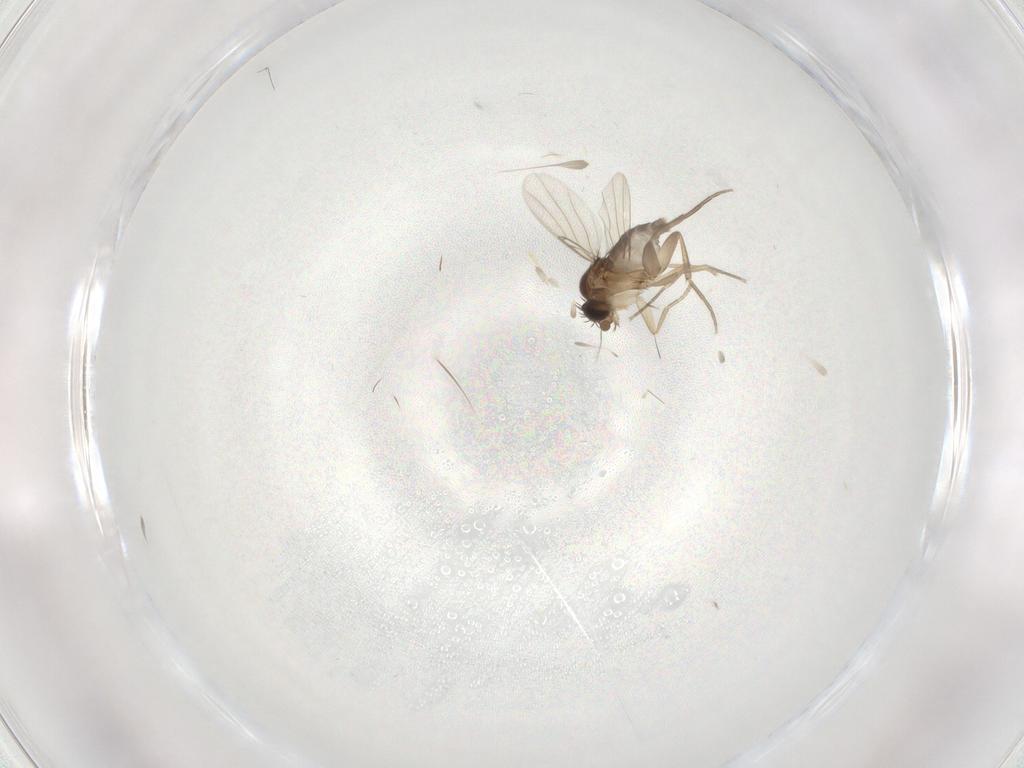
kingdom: Animalia
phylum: Arthropoda
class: Insecta
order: Diptera
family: Phoridae
